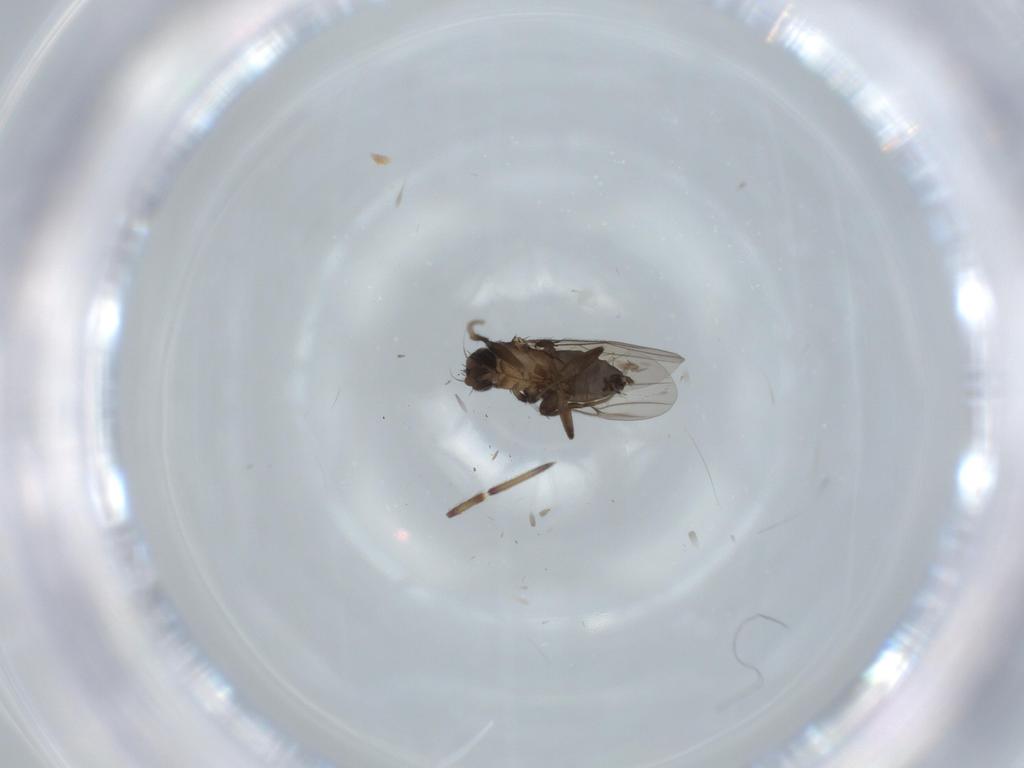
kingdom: Animalia
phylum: Arthropoda
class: Insecta
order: Diptera
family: Phoridae
